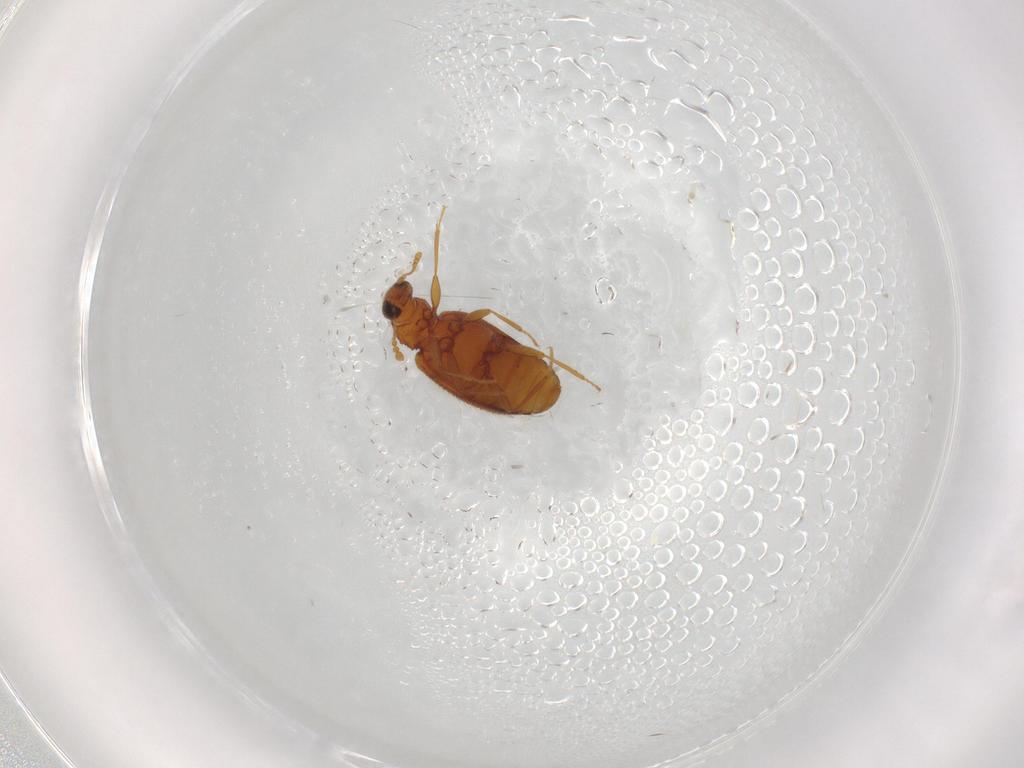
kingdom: Animalia
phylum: Arthropoda
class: Insecta
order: Coleoptera
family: Latridiidae
